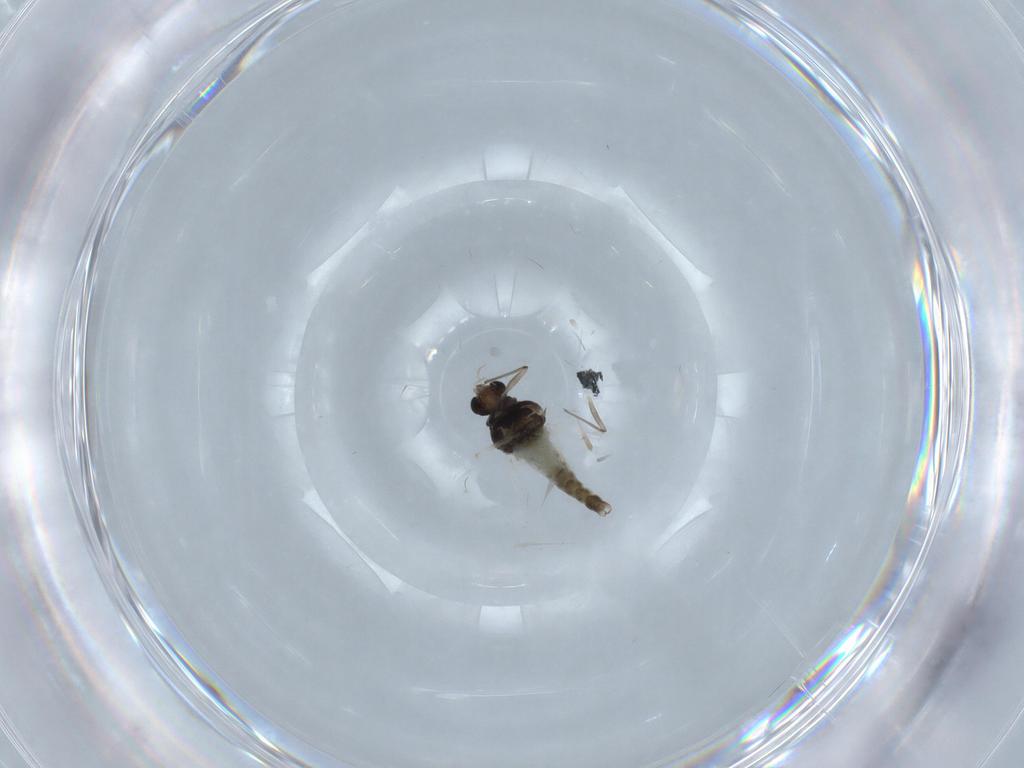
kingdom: Animalia
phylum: Arthropoda
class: Insecta
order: Diptera
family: Chironomidae
